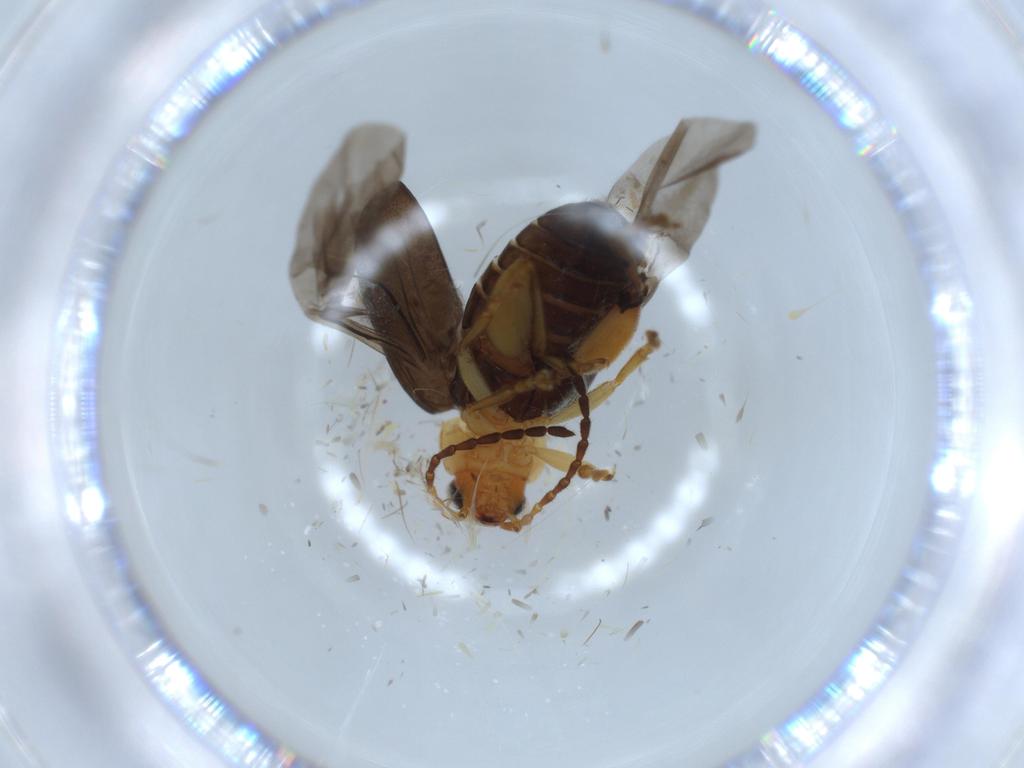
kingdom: Animalia
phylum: Arthropoda
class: Insecta
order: Coleoptera
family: Chrysomelidae
